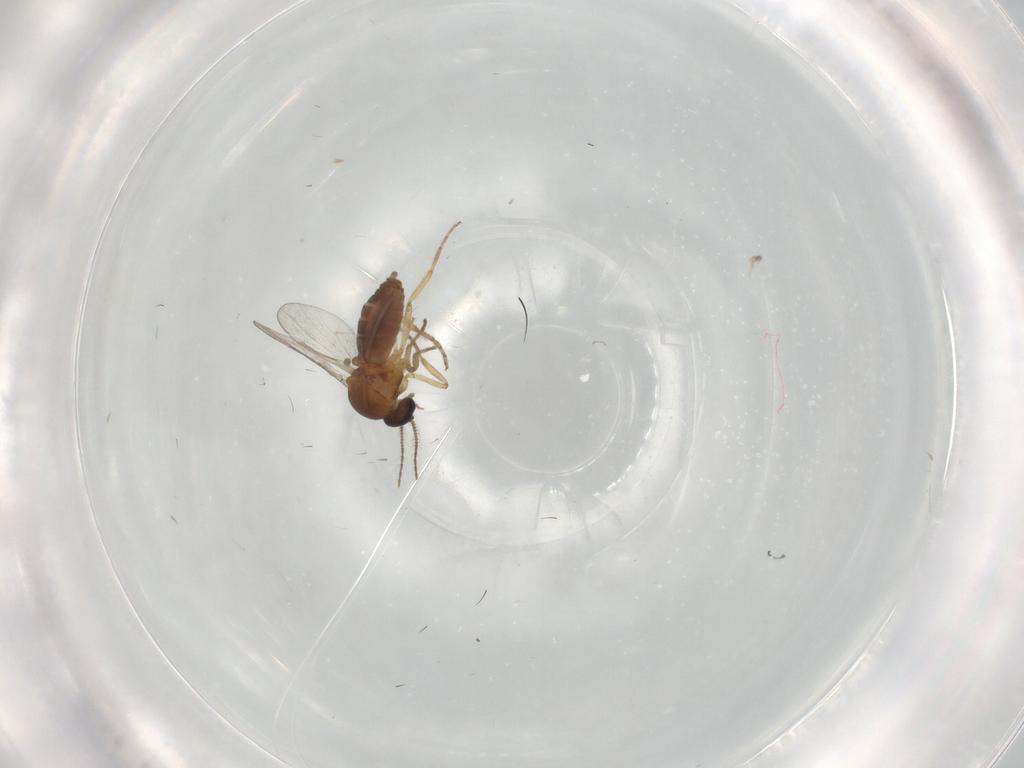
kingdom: Animalia
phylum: Arthropoda
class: Insecta
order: Diptera
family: Ceratopogonidae
